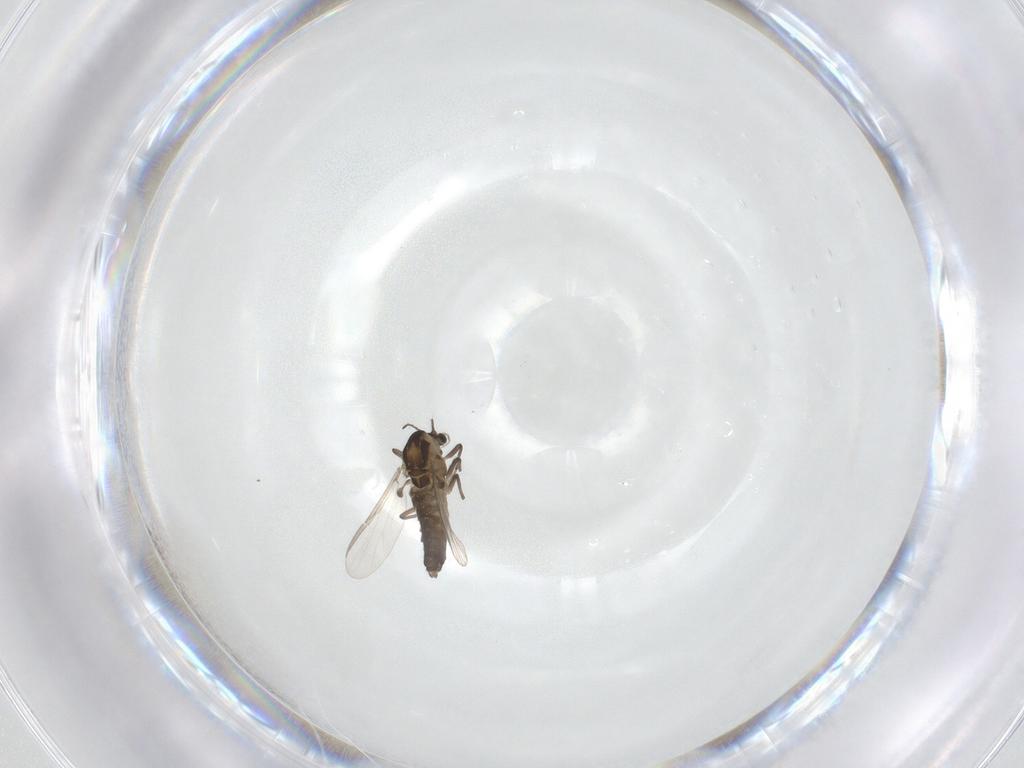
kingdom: Animalia
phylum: Arthropoda
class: Insecta
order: Diptera
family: Chironomidae
